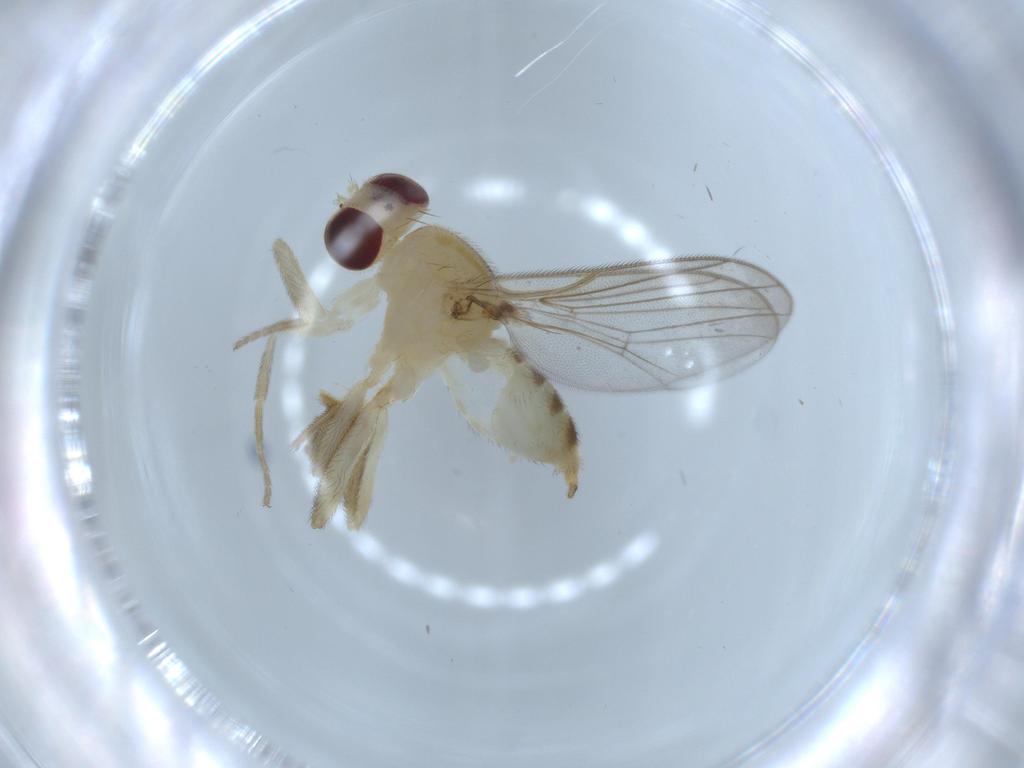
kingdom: Animalia
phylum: Arthropoda
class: Insecta
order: Diptera
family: Chloropidae
